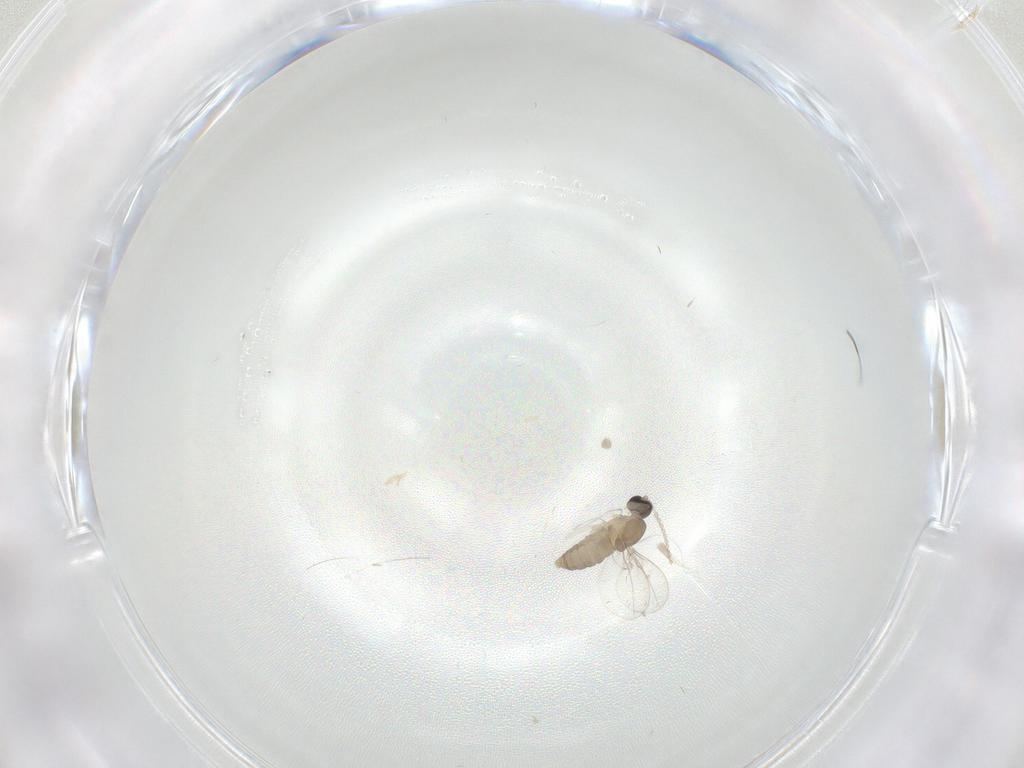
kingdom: Animalia
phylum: Arthropoda
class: Insecta
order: Diptera
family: Cecidomyiidae
